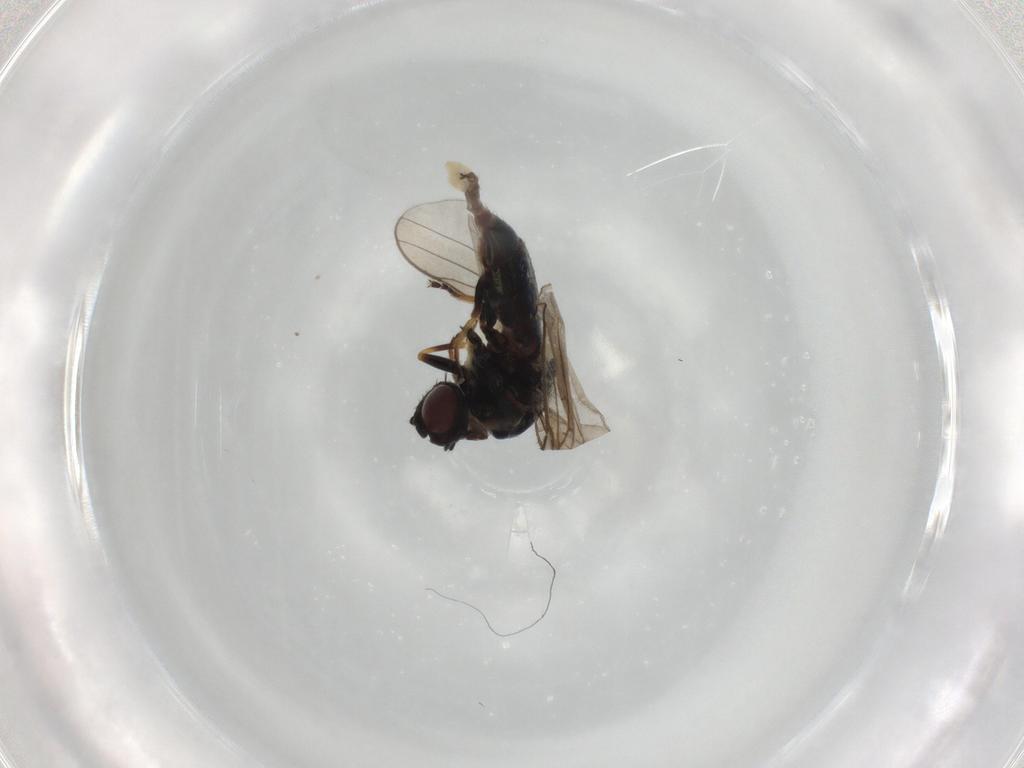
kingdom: Animalia
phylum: Arthropoda
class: Insecta
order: Diptera
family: Chloropidae
